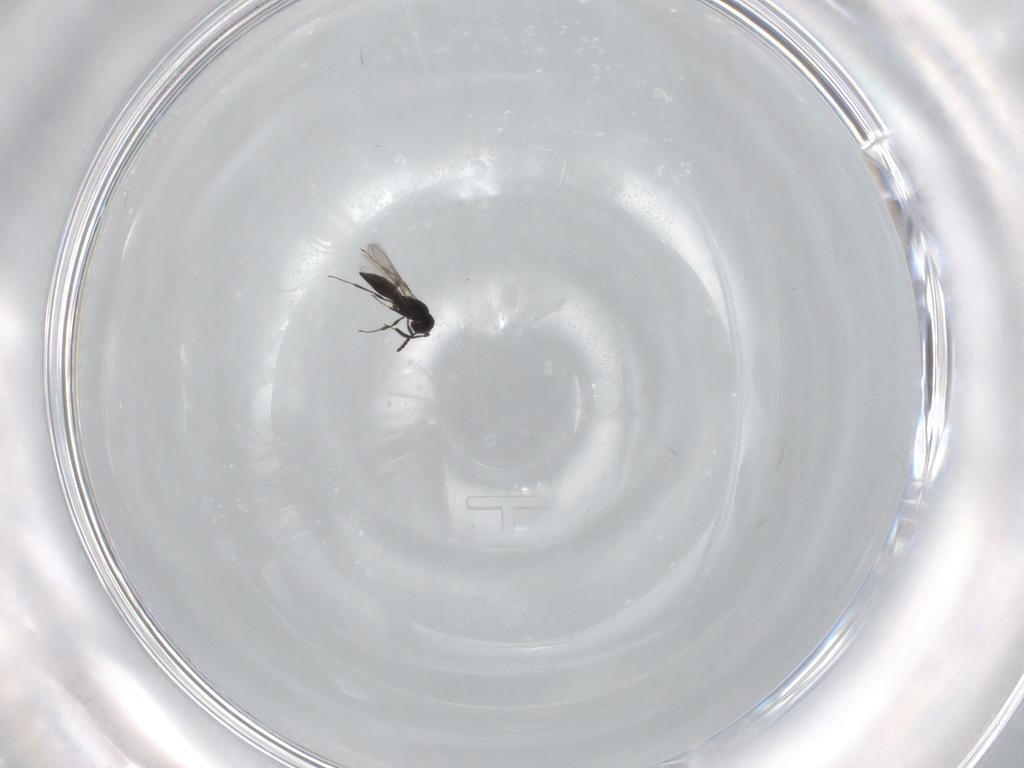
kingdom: Animalia
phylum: Arthropoda
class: Insecta
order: Hymenoptera
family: Scelionidae
